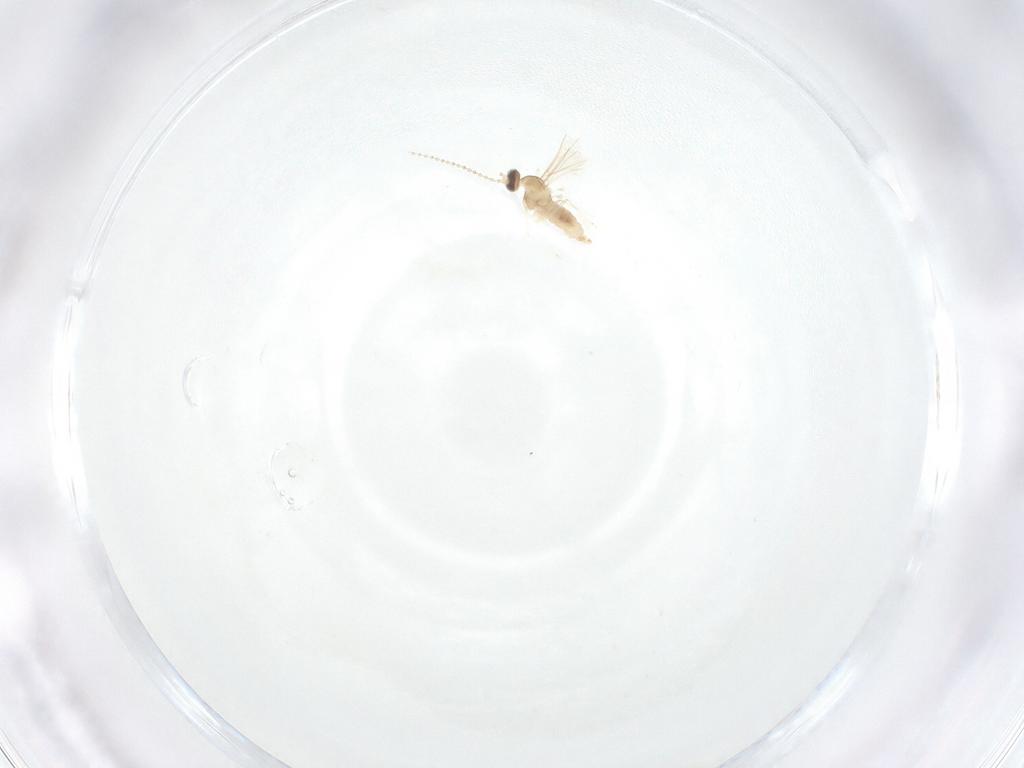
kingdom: Animalia
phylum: Arthropoda
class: Insecta
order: Diptera
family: Cecidomyiidae
